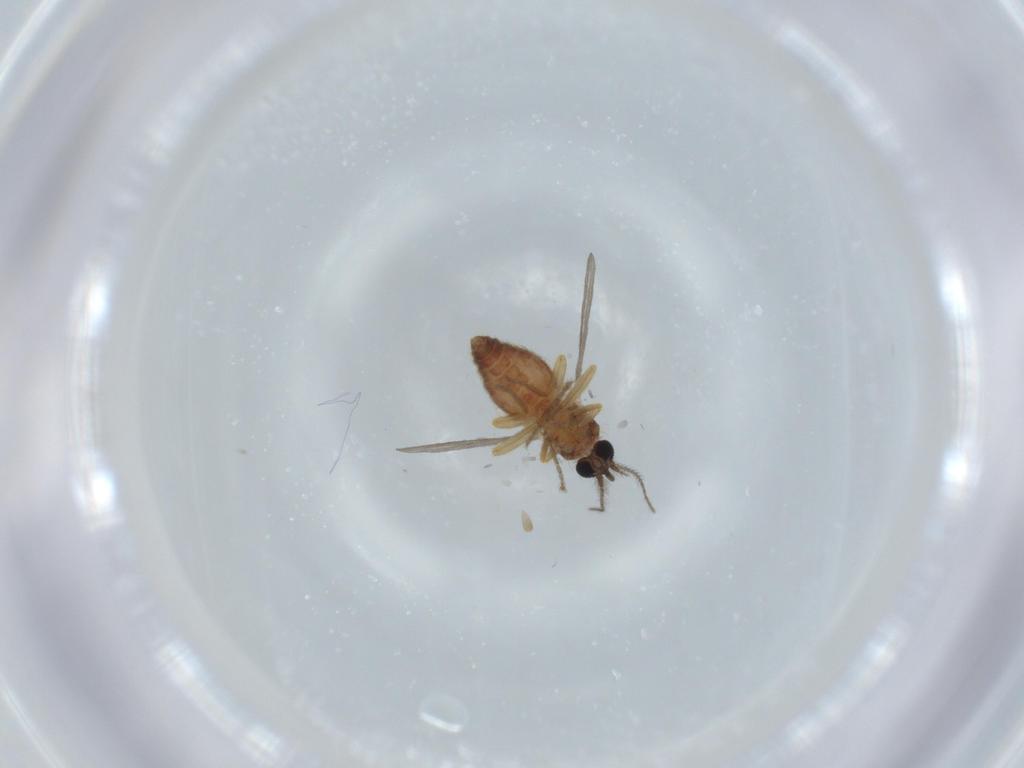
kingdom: Animalia
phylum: Arthropoda
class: Insecta
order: Diptera
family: Ceratopogonidae
